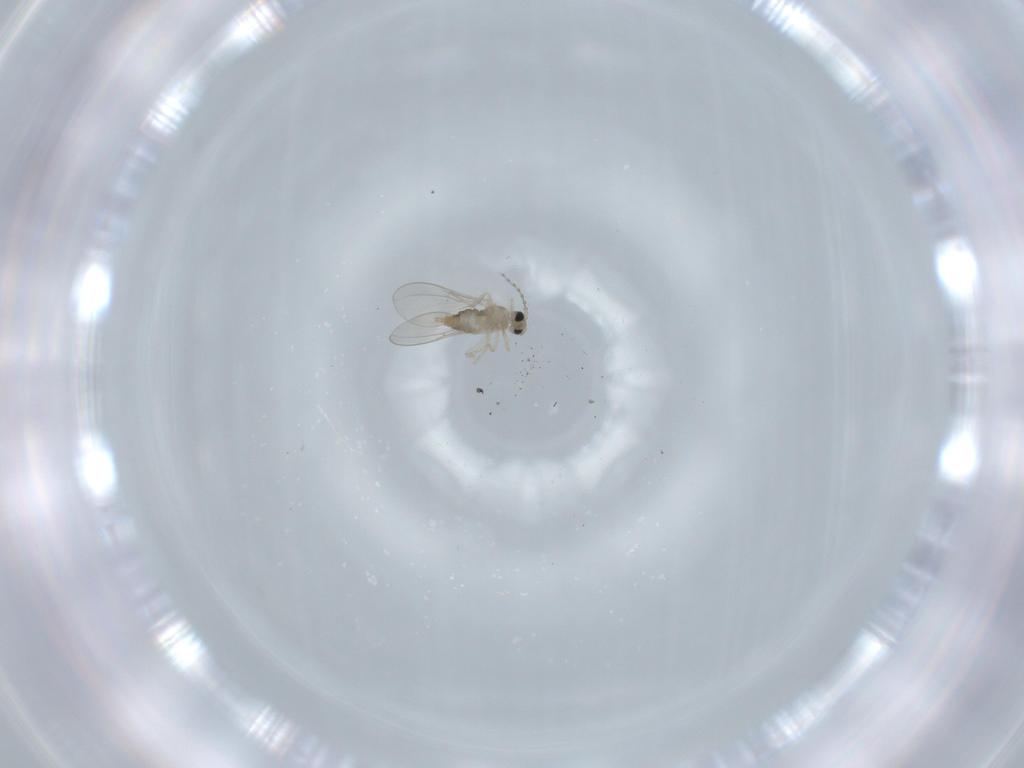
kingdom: Animalia
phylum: Arthropoda
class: Insecta
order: Diptera
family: Cecidomyiidae
